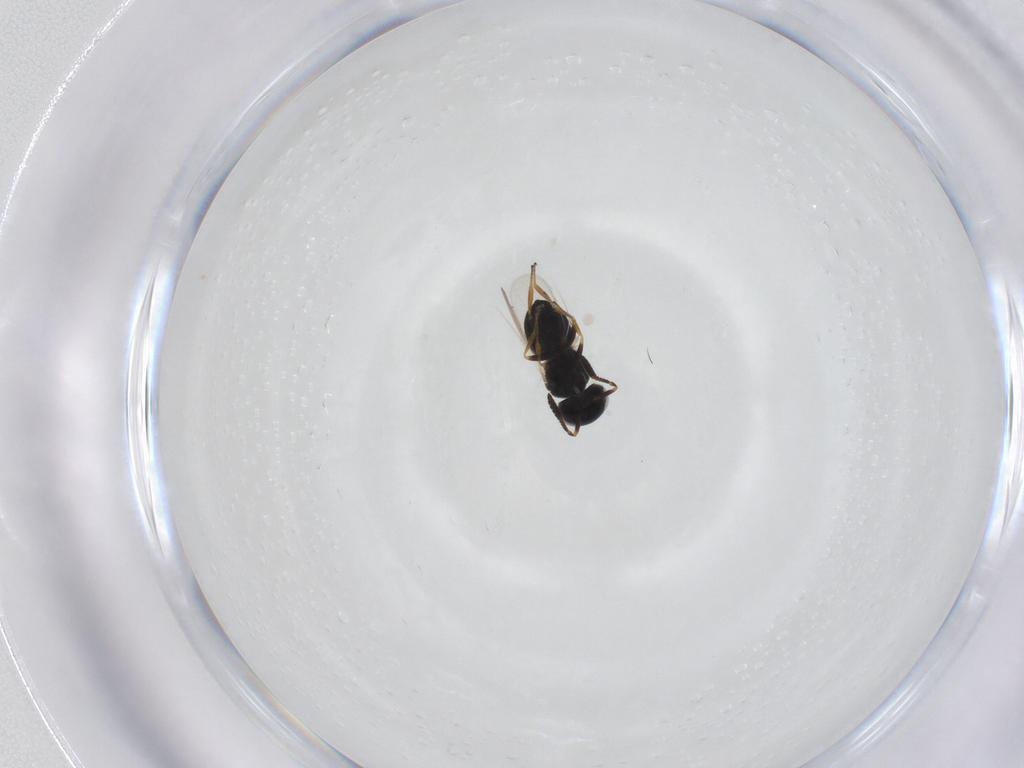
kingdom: Animalia
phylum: Arthropoda
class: Insecta
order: Hymenoptera
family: Scelionidae
